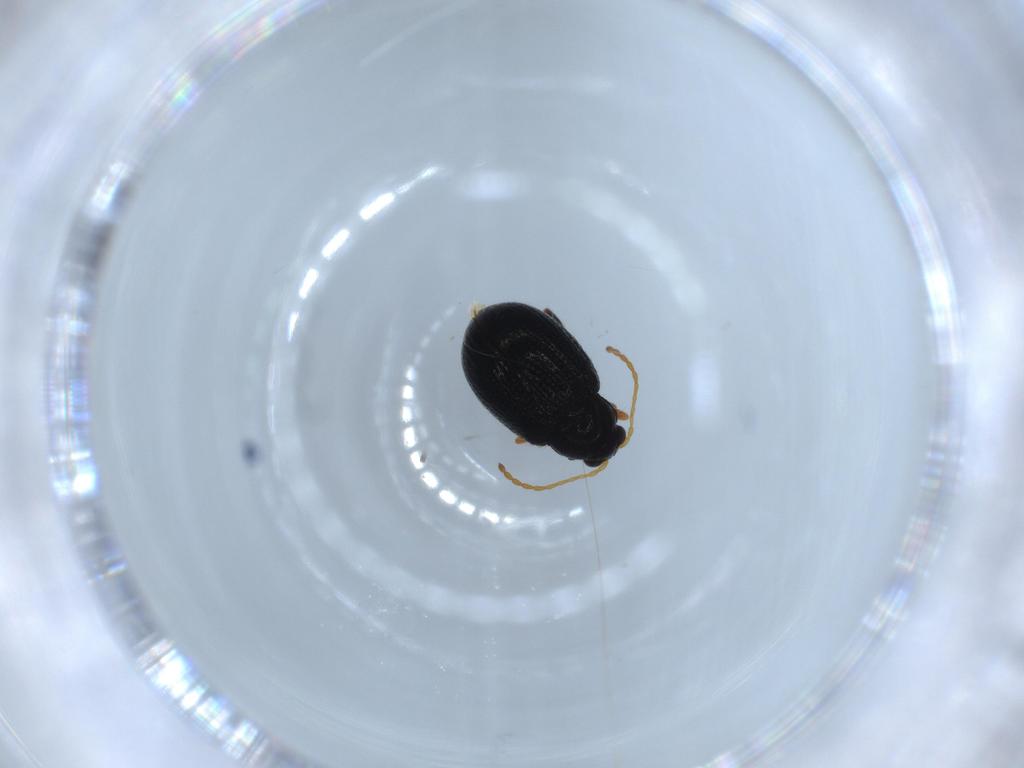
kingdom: Animalia
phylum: Arthropoda
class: Insecta
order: Coleoptera
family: Chrysomelidae
